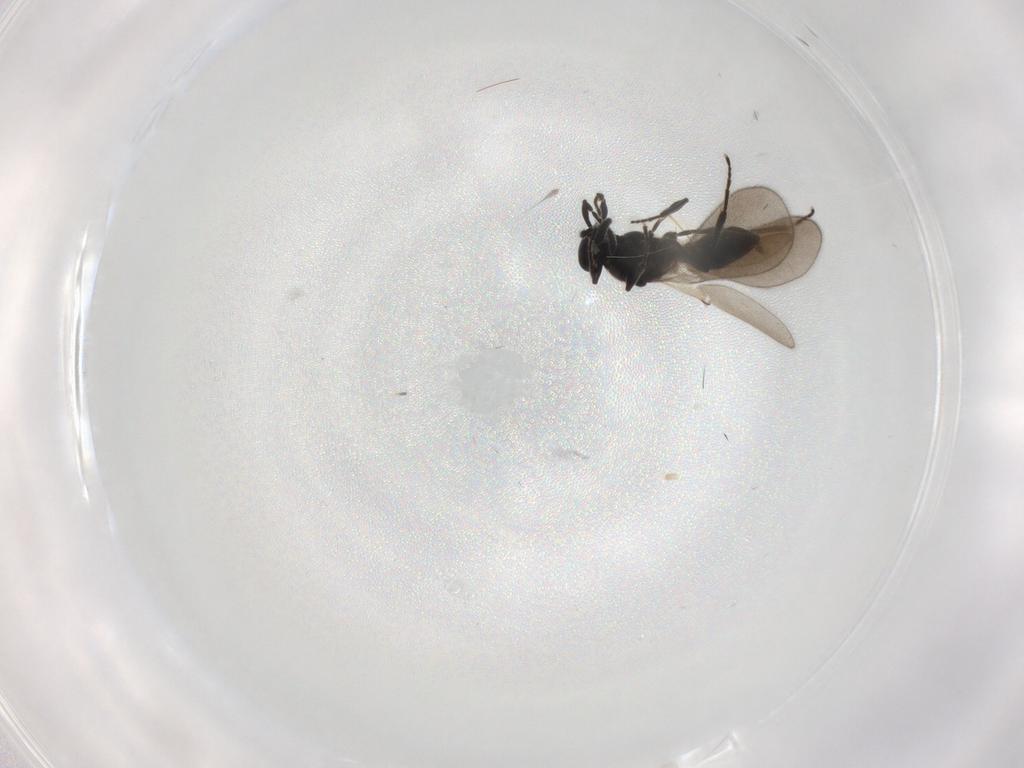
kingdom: Animalia
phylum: Arthropoda
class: Insecta
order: Hymenoptera
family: Platygastridae
